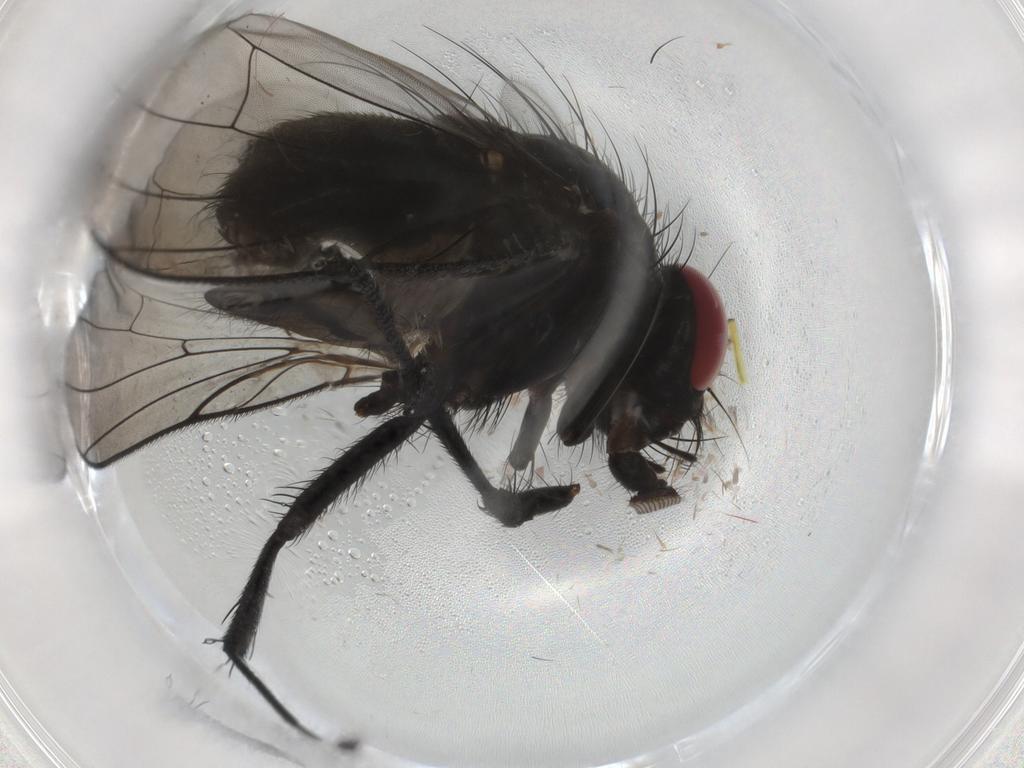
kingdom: Animalia
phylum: Arthropoda
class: Insecta
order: Diptera
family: Fannia
